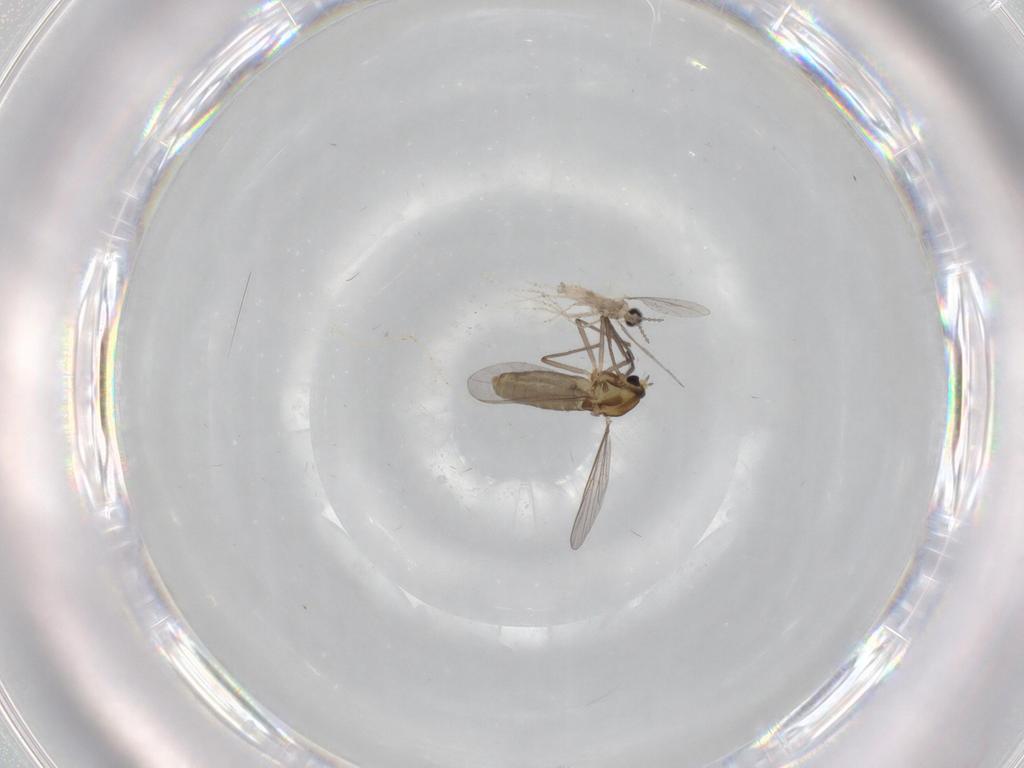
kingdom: Animalia
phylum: Arthropoda
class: Insecta
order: Diptera
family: Chironomidae
